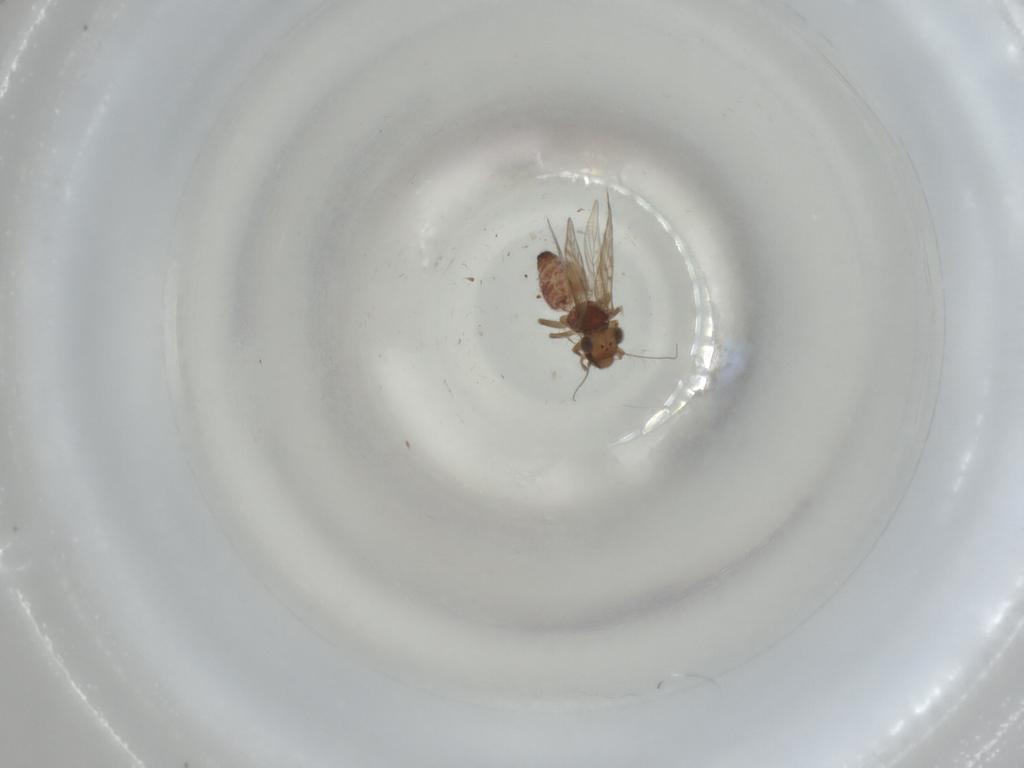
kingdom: Animalia
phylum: Arthropoda
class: Insecta
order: Psocodea
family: Lepidopsocidae
